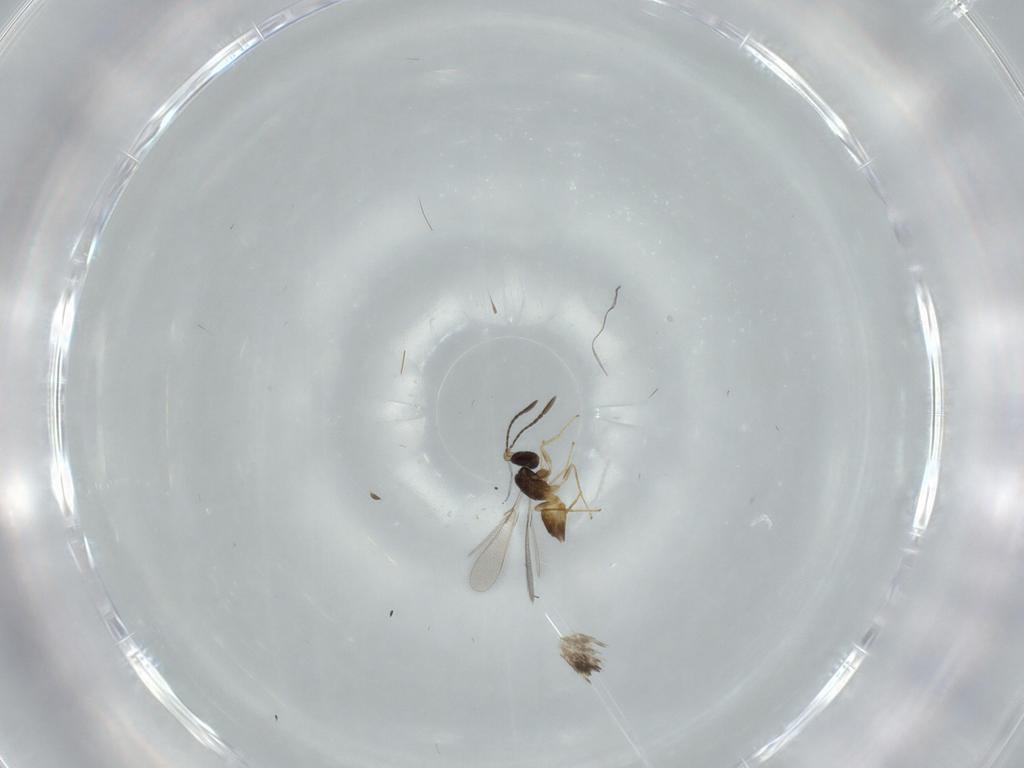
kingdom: Animalia
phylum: Arthropoda
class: Insecta
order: Hymenoptera
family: Mymaridae
